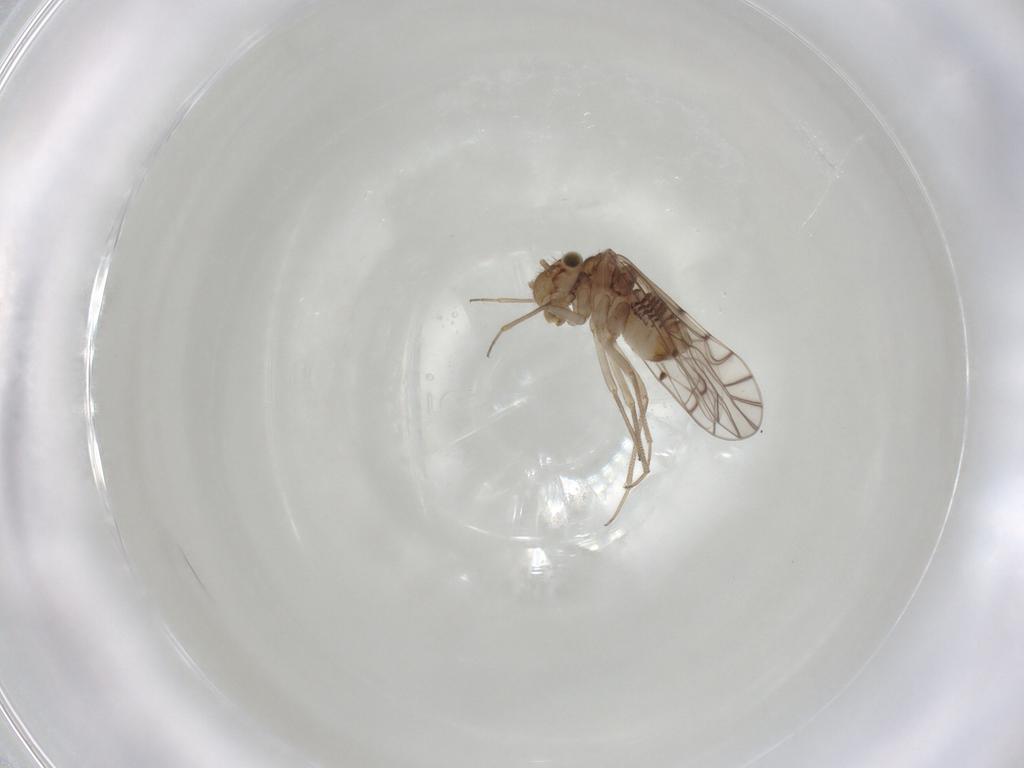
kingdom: Animalia
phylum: Arthropoda
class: Insecta
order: Psocodea
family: Lachesillidae
